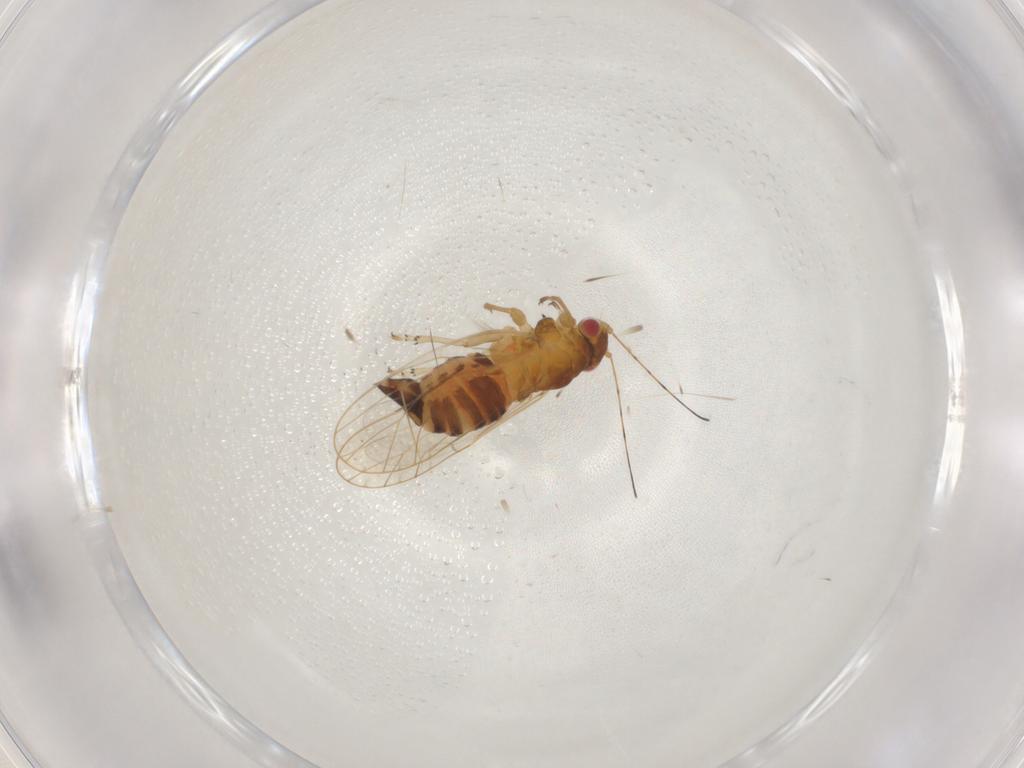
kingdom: Animalia
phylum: Arthropoda
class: Insecta
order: Hemiptera
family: Psyllidae
